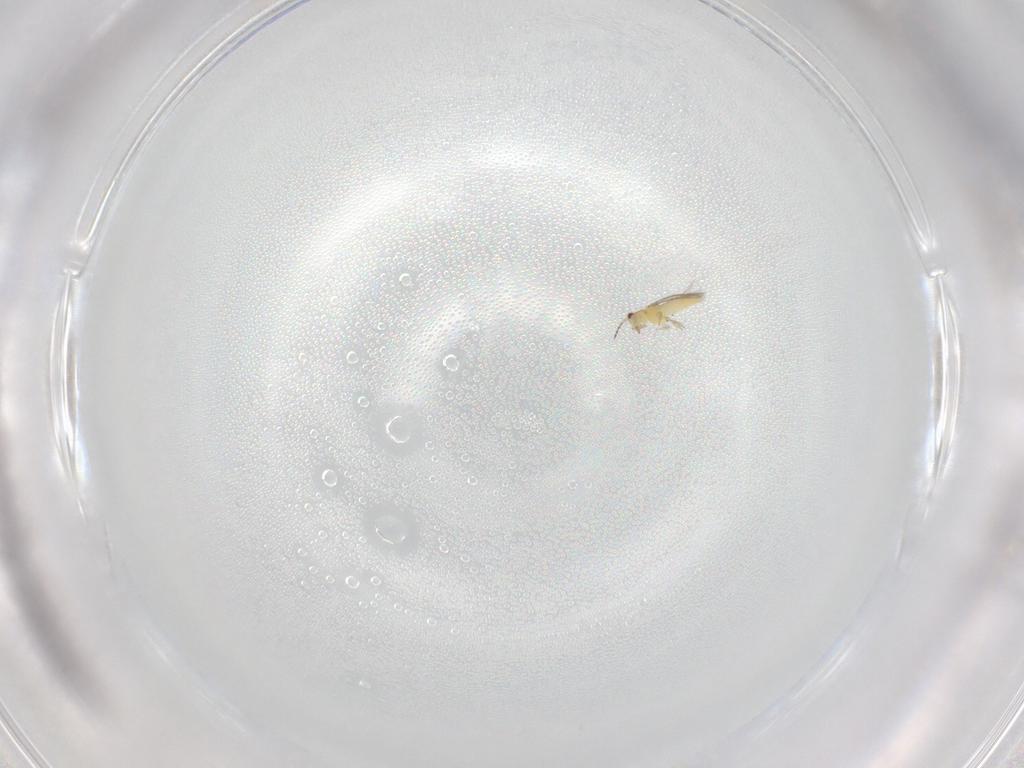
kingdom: Animalia
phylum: Arthropoda
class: Insecta
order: Thysanoptera
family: Thripidae
